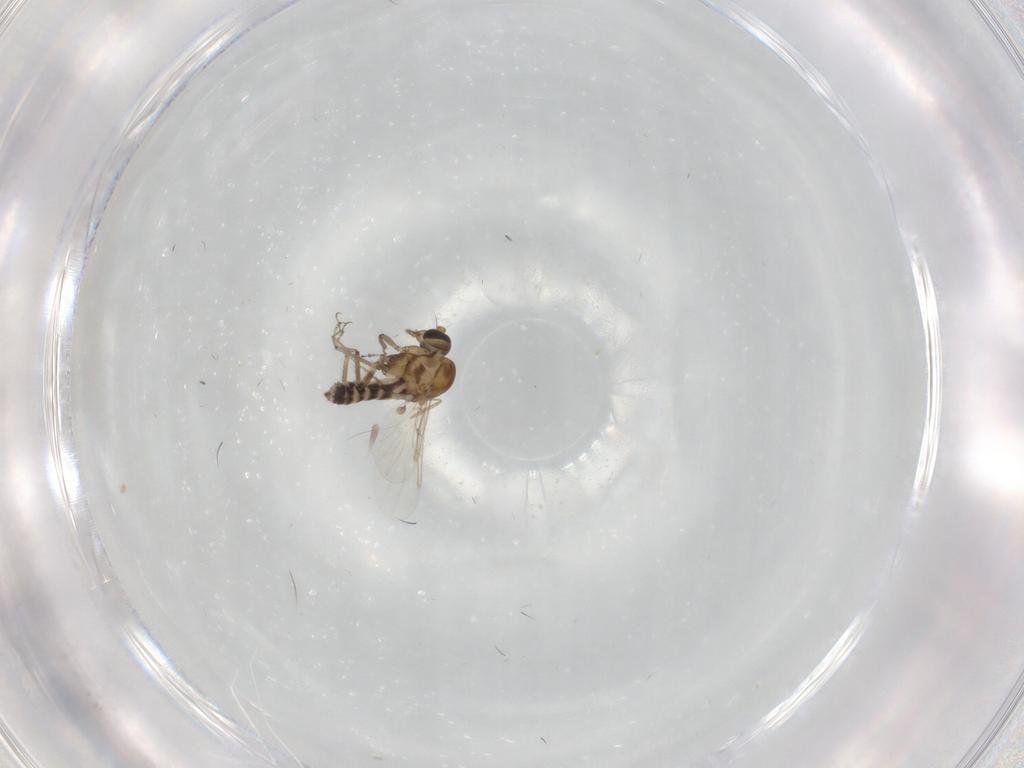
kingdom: Animalia
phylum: Arthropoda
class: Insecta
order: Diptera
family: Ceratopogonidae
